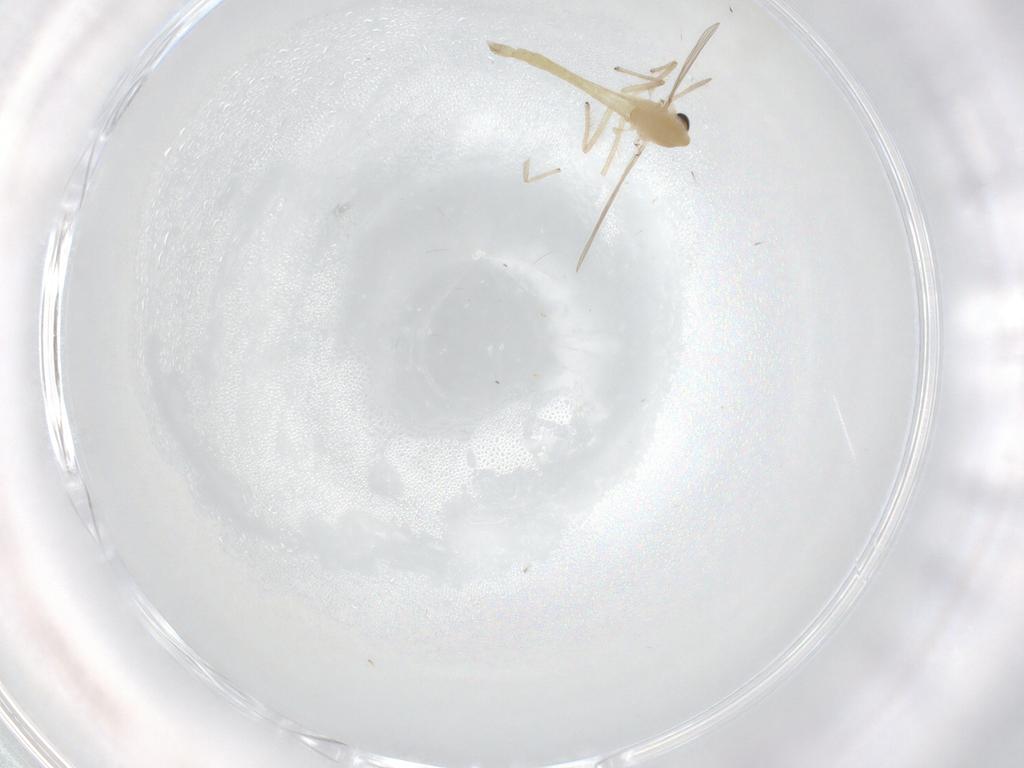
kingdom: Animalia
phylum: Arthropoda
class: Insecta
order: Diptera
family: Chironomidae
